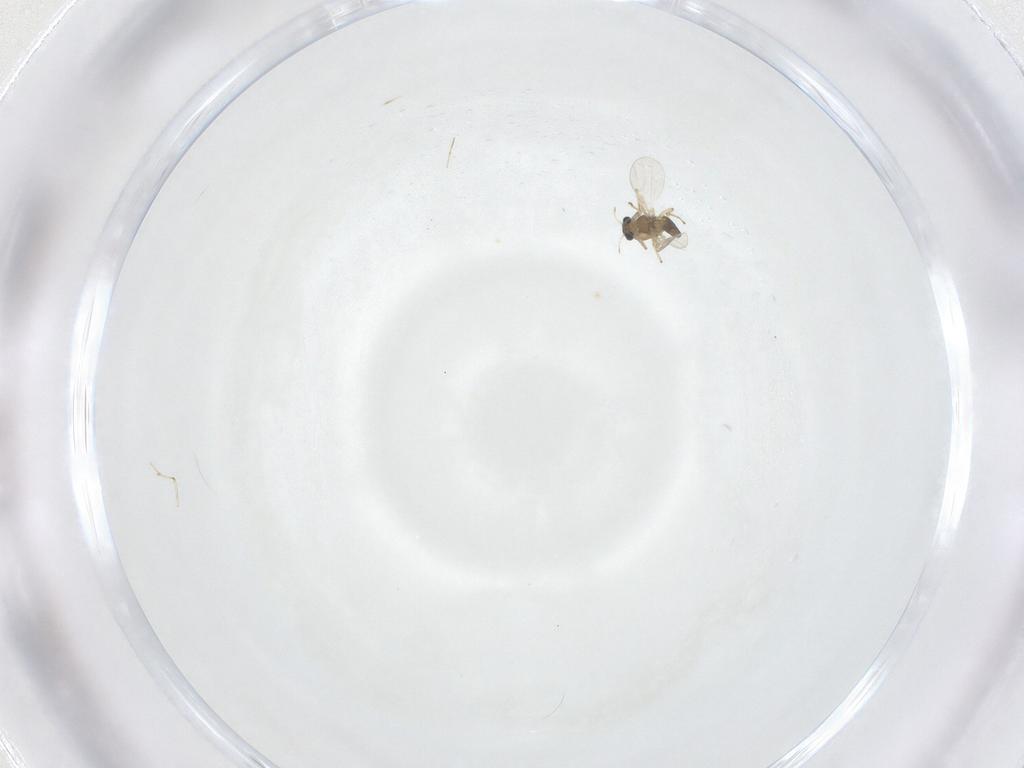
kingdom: Animalia
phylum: Arthropoda
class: Insecta
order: Diptera
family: Chironomidae
